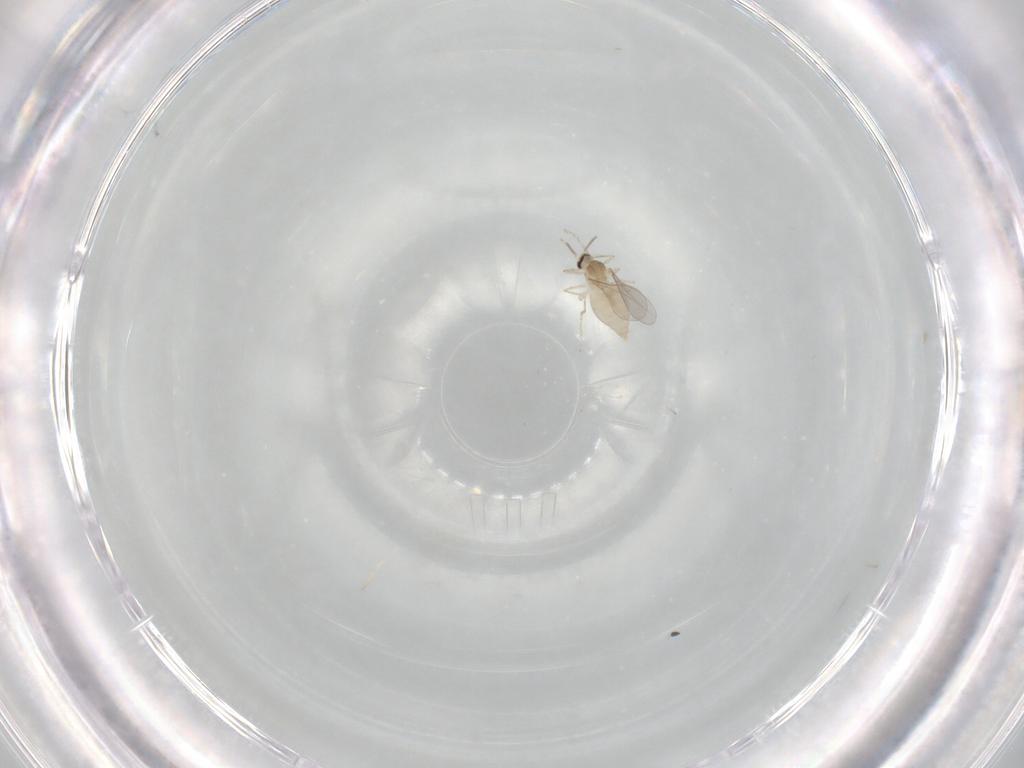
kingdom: Animalia
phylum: Arthropoda
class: Insecta
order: Diptera
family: Cecidomyiidae
